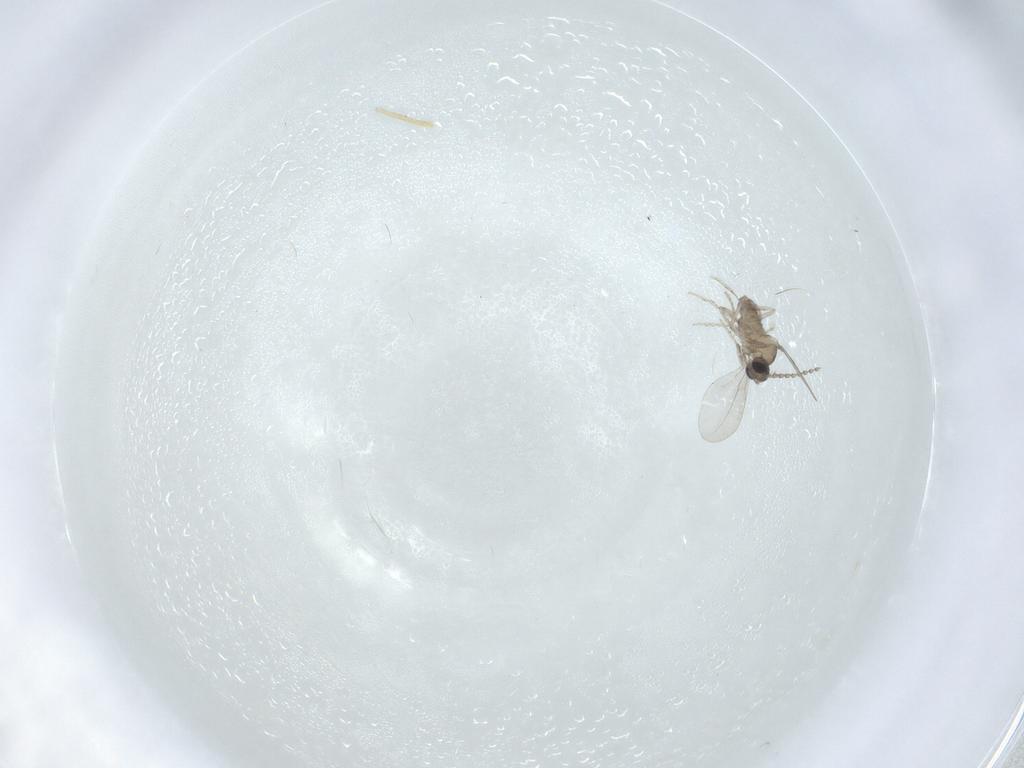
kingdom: Animalia
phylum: Arthropoda
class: Insecta
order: Diptera
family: Cecidomyiidae
